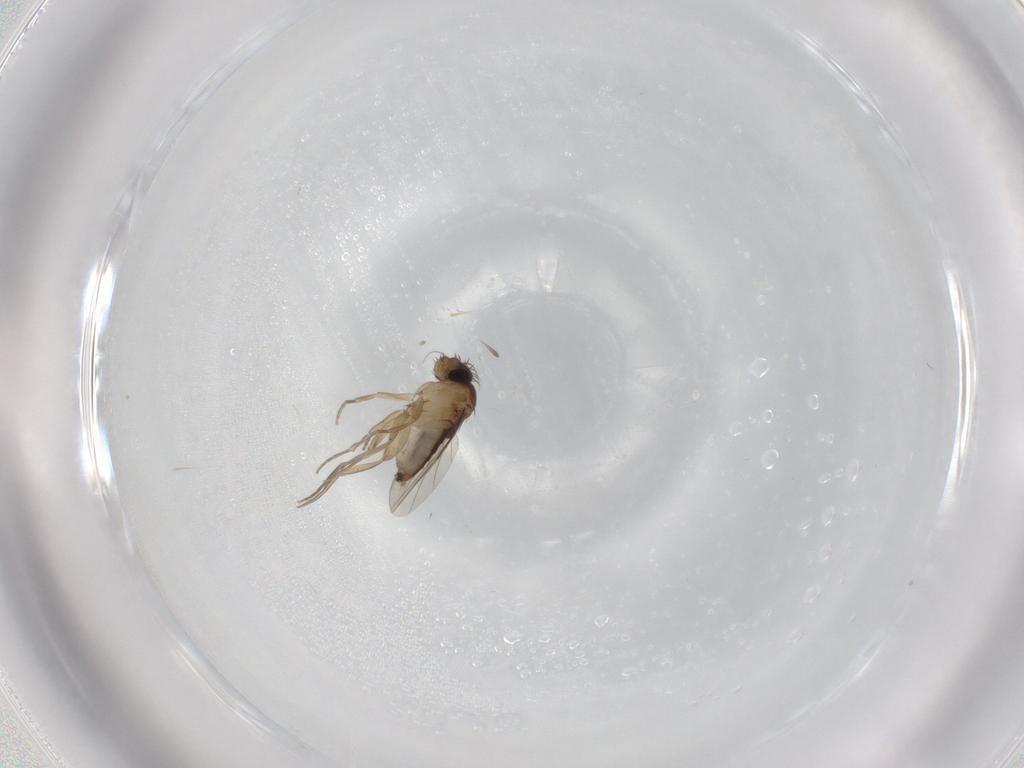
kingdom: Animalia
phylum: Arthropoda
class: Insecta
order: Diptera
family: Phoridae
